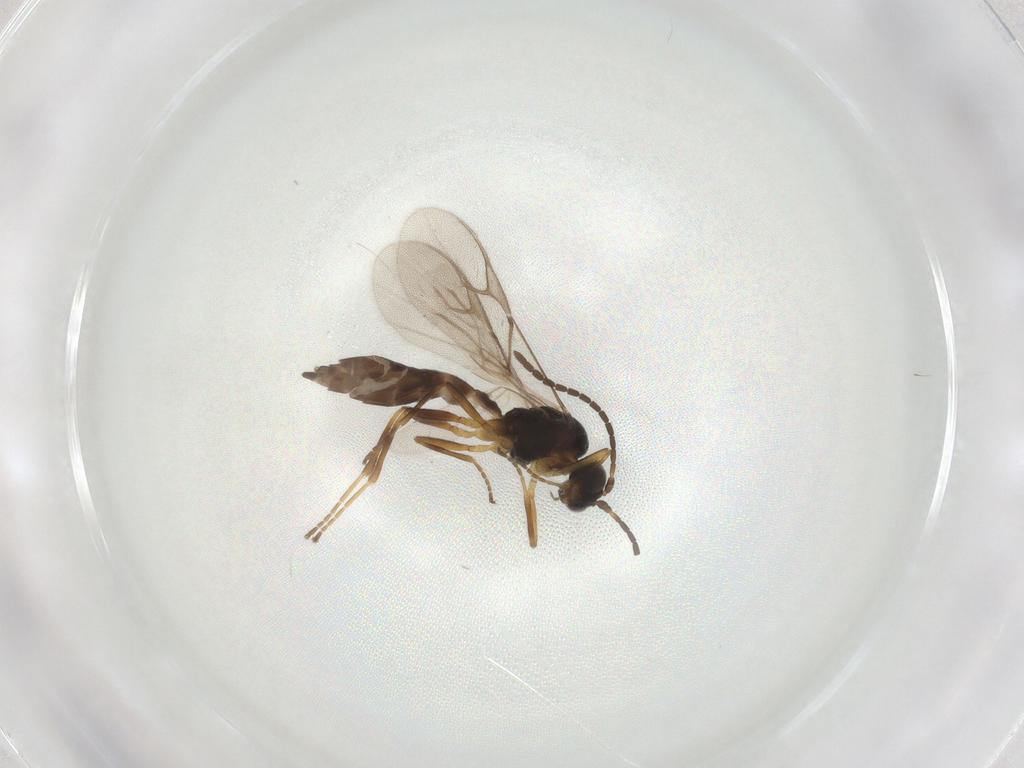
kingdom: Animalia
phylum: Arthropoda
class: Insecta
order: Hymenoptera
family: Braconidae
